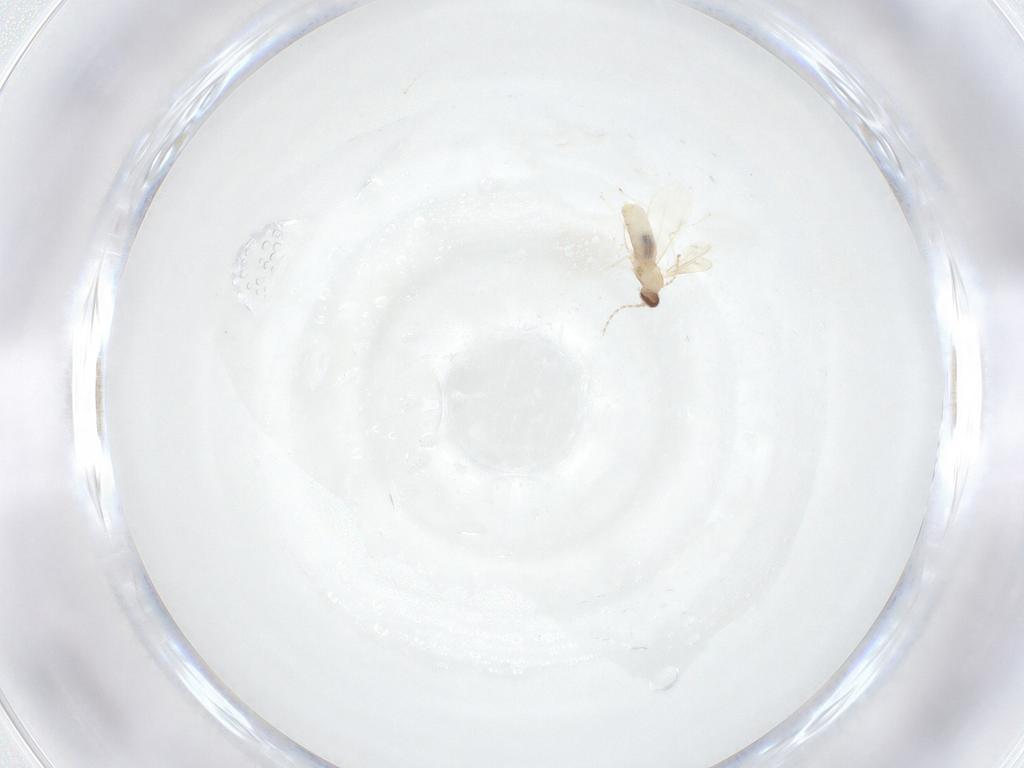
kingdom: Animalia
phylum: Arthropoda
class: Insecta
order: Diptera
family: Cecidomyiidae
